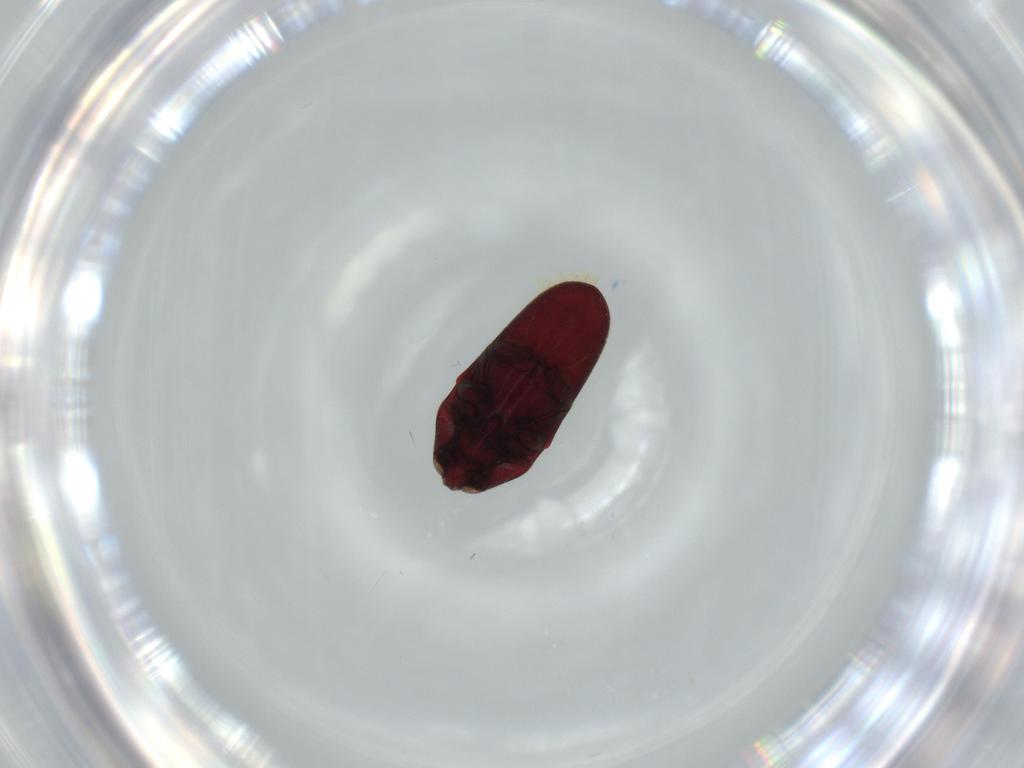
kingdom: Animalia
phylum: Arthropoda
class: Insecta
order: Coleoptera
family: Throscidae
